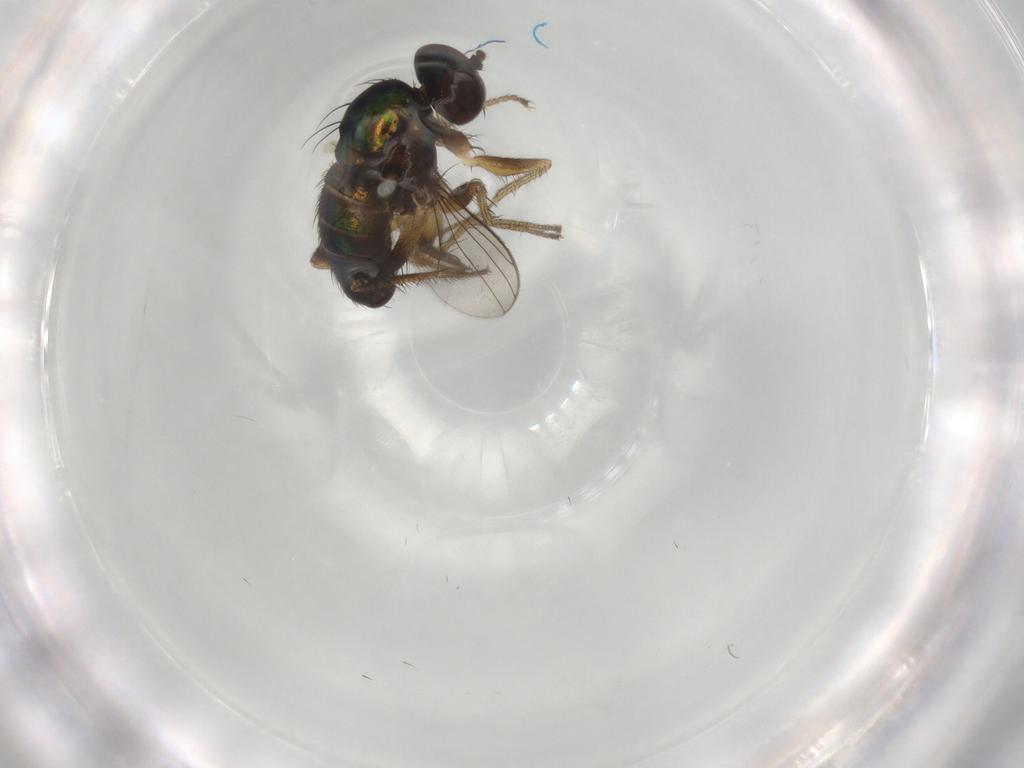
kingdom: Animalia
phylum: Arthropoda
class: Insecta
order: Diptera
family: Dolichopodidae
